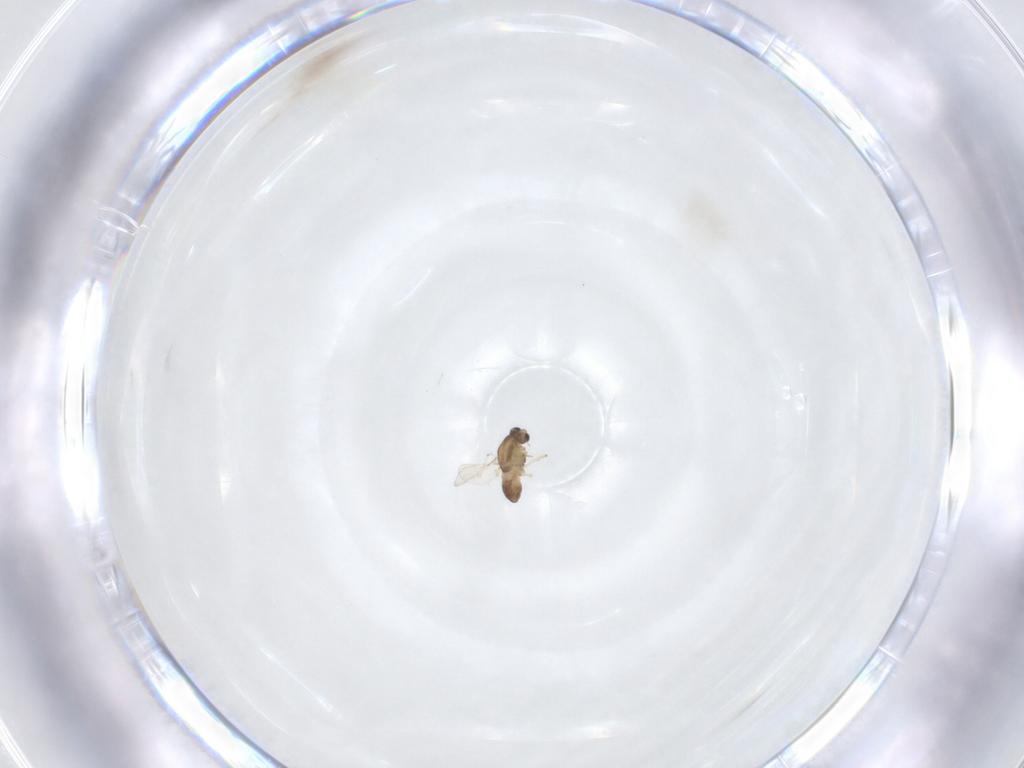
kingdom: Animalia
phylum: Arthropoda
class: Insecta
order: Diptera
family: Chironomidae
